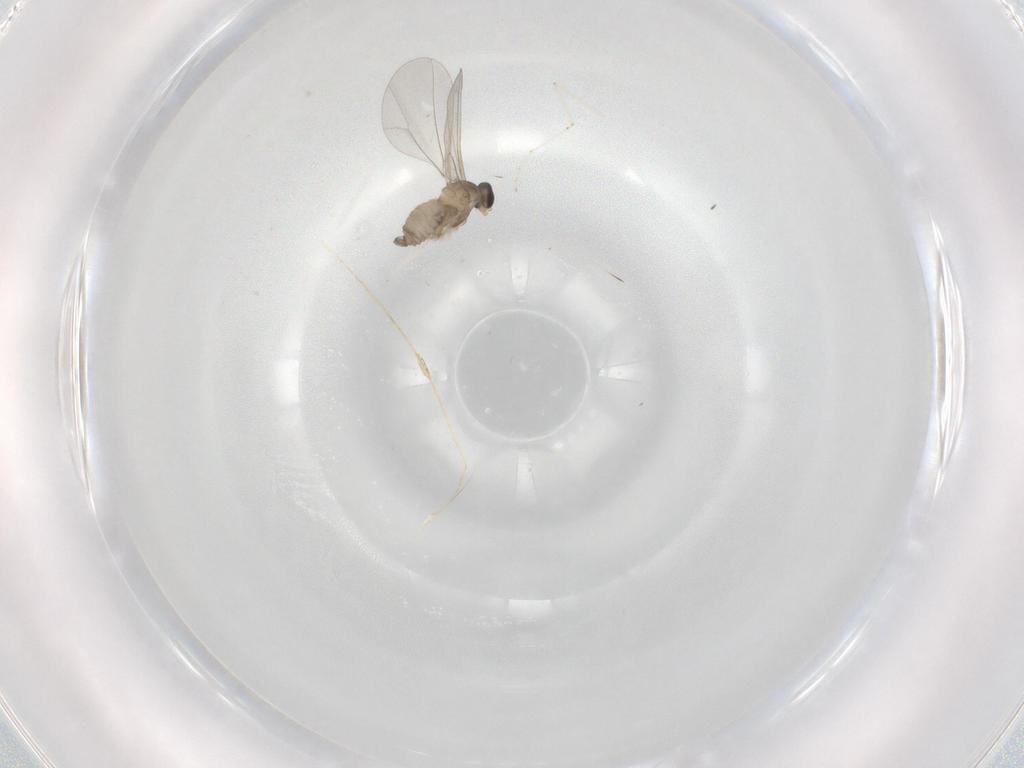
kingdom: Animalia
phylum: Arthropoda
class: Insecta
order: Diptera
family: Cecidomyiidae
